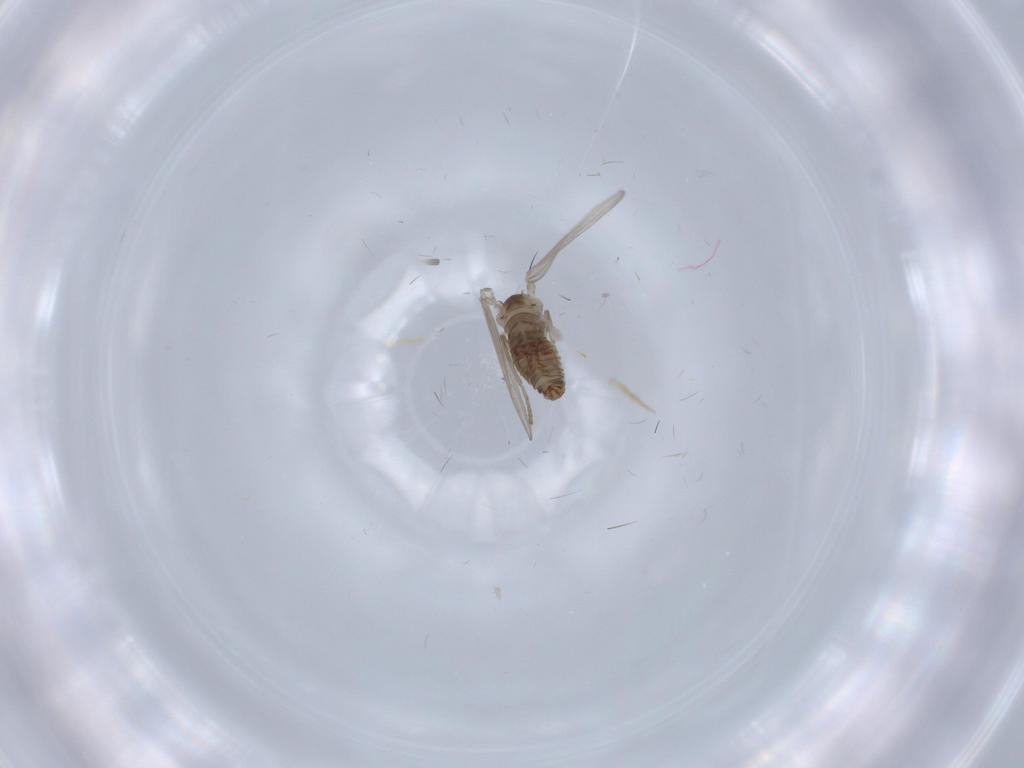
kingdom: Animalia
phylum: Arthropoda
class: Insecta
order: Diptera
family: Psychodidae
